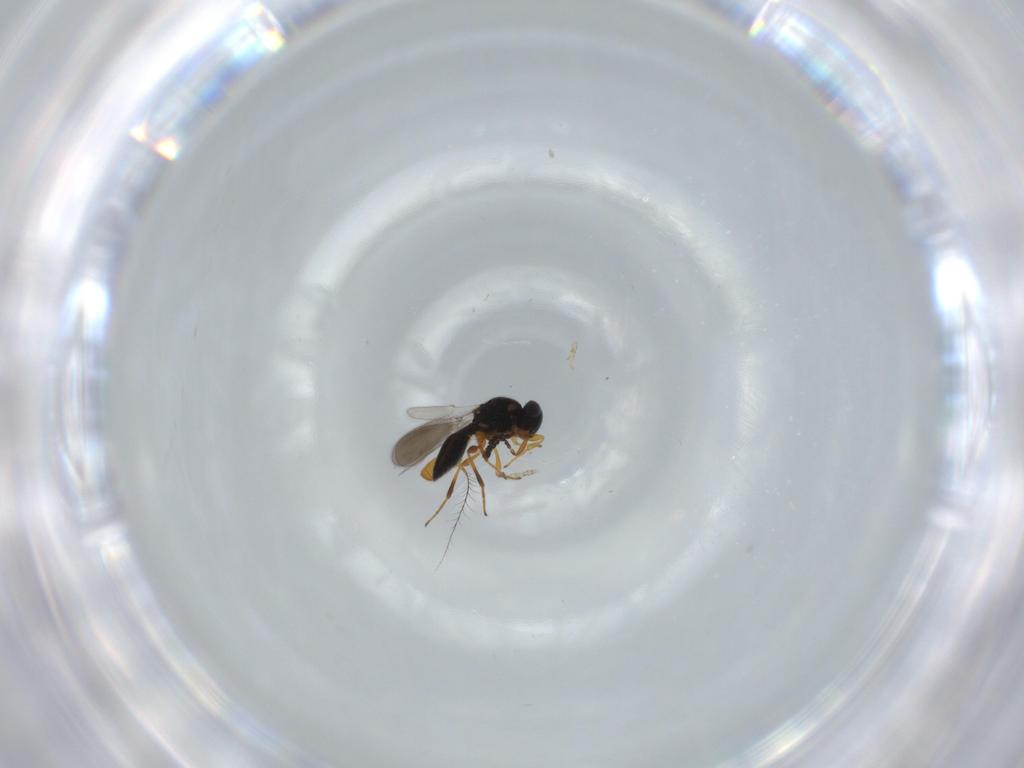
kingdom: Animalia
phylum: Arthropoda
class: Insecta
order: Hymenoptera
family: Platygastridae
